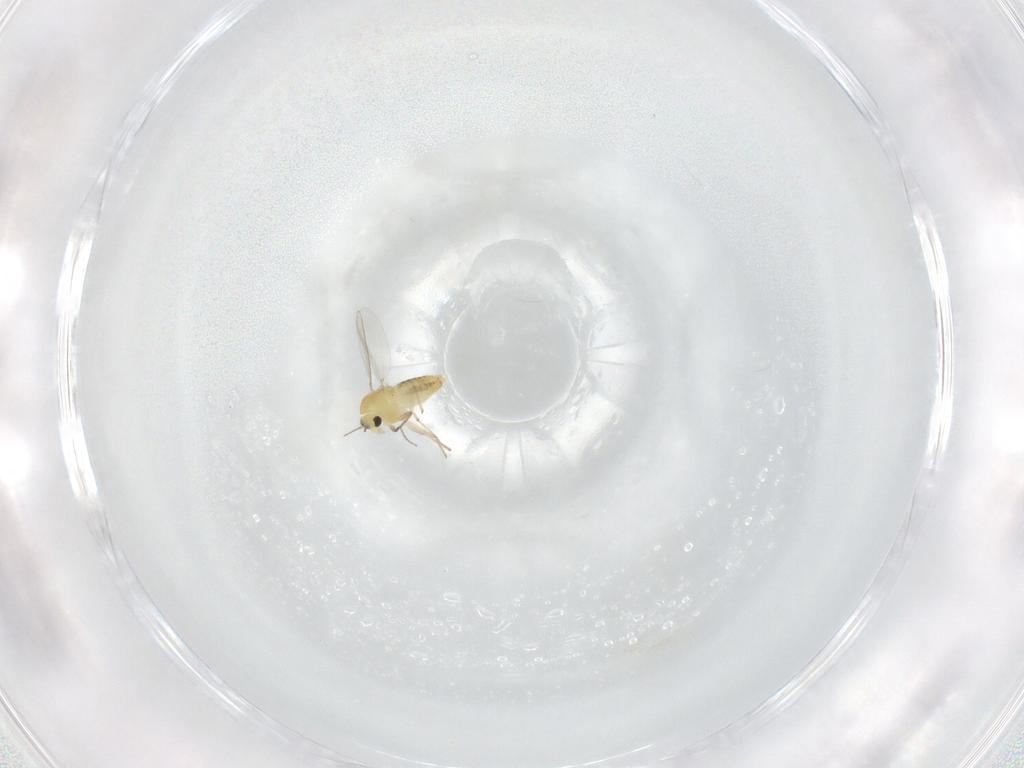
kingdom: Animalia
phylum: Arthropoda
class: Insecta
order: Diptera
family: Chironomidae
